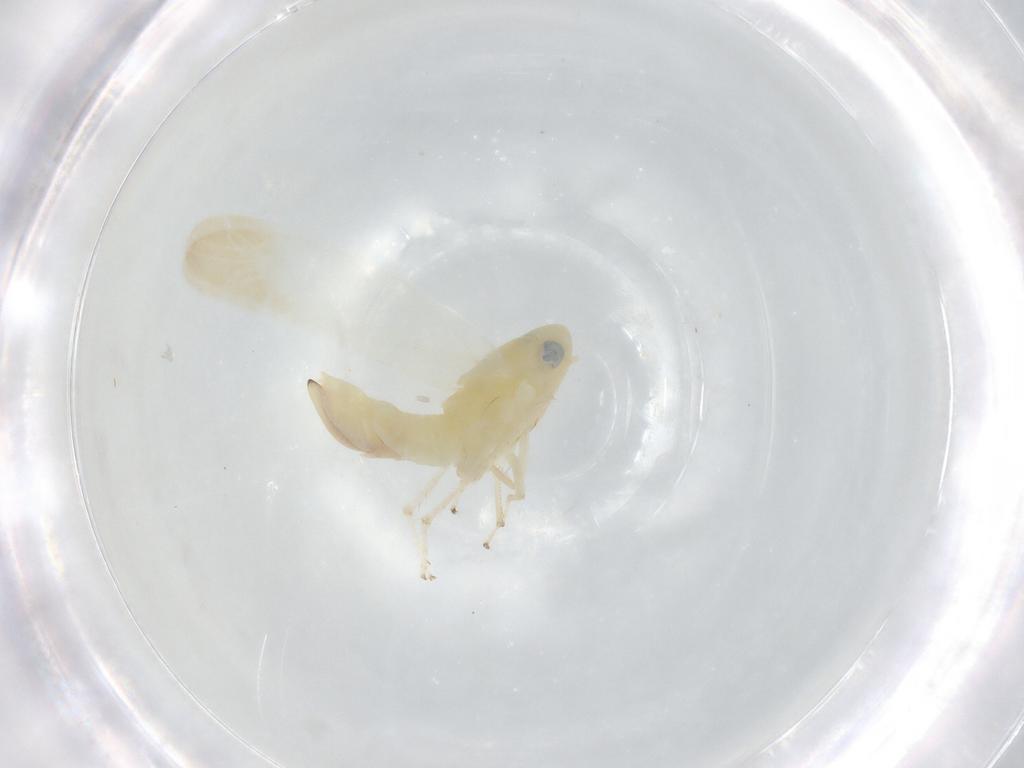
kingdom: Animalia
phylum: Arthropoda
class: Insecta
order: Hemiptera
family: Cicadellidae
